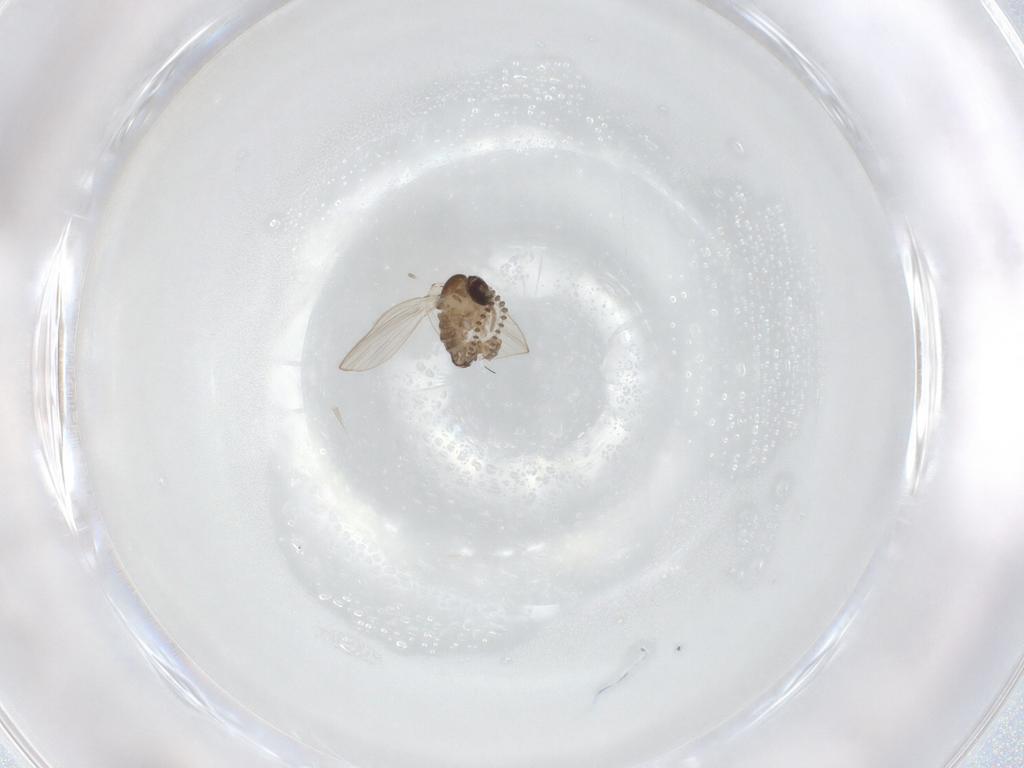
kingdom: Animalia
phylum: Arthropoda
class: Insecta
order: Diptera
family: Psychodidae
